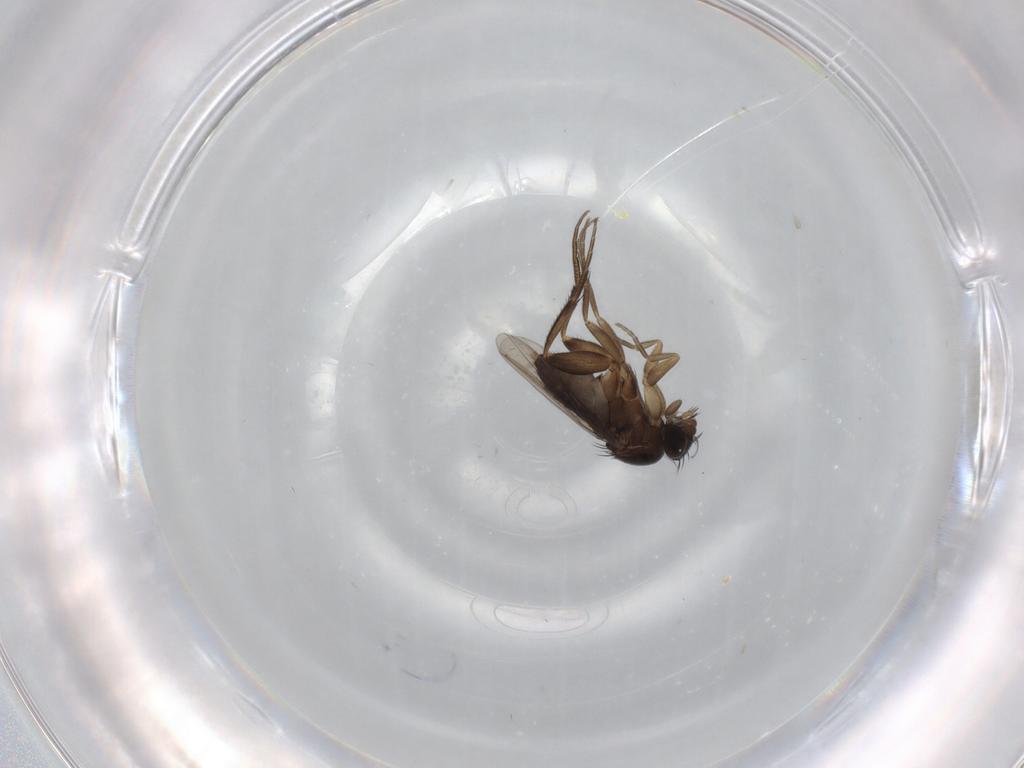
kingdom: Animalia
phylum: Arthropoda
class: Insecta
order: Diptera
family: Phoridae
